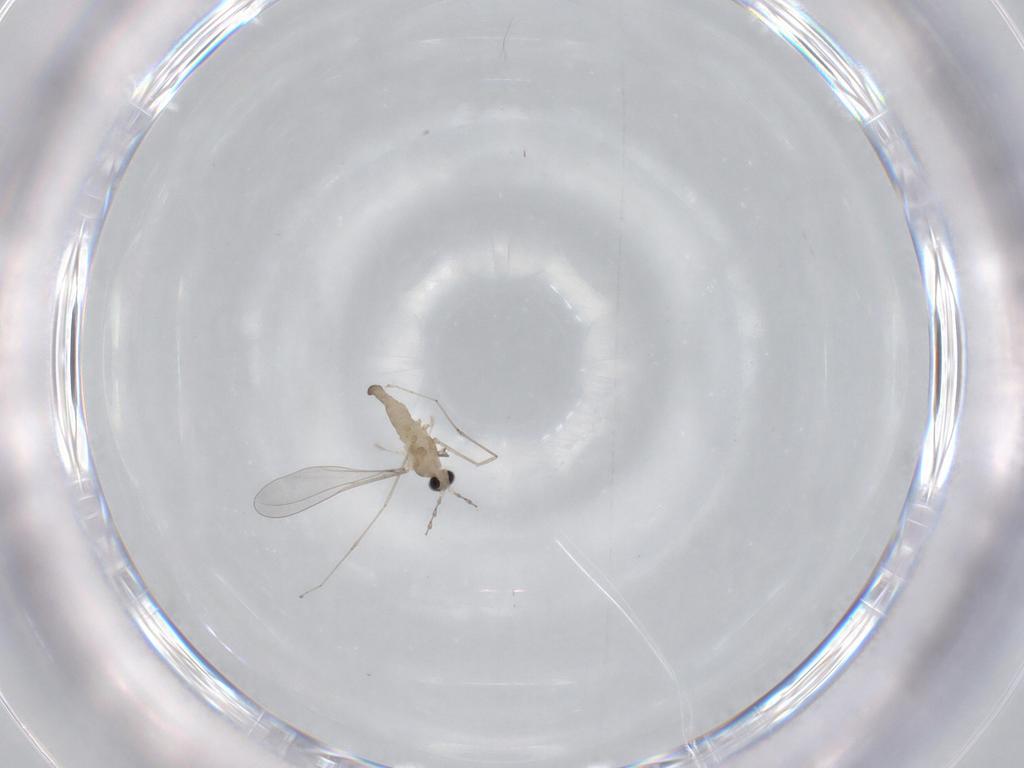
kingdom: Animalia
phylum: Arthropoda
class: Insecta
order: Diptera
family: Cecidomyiidae
